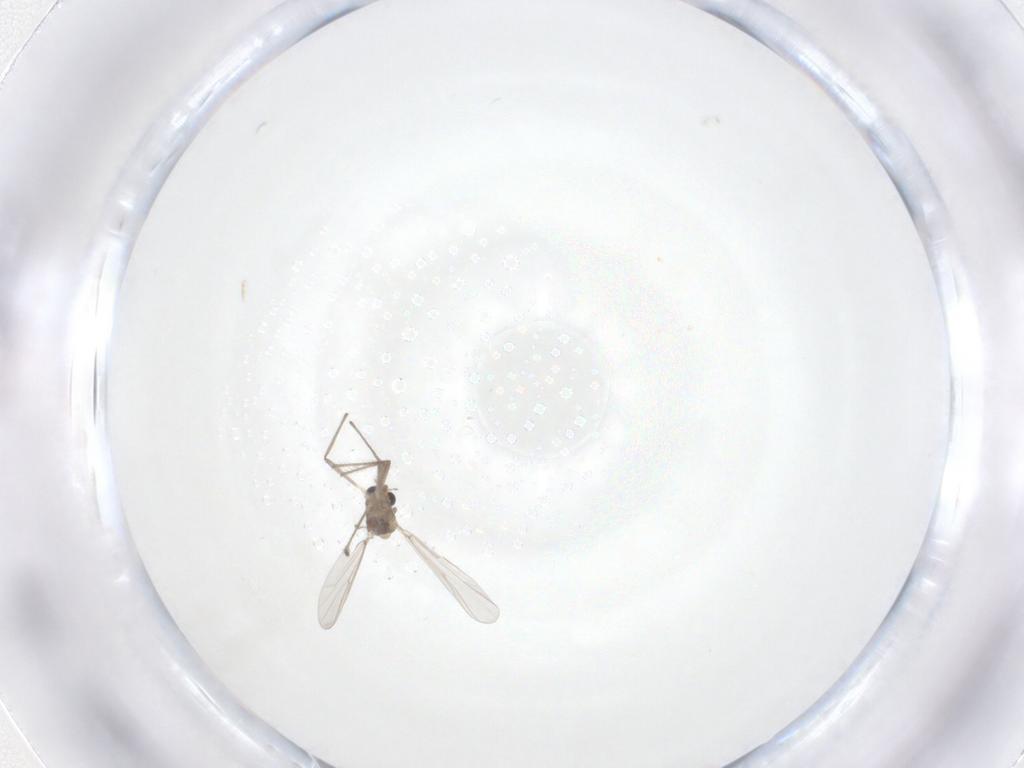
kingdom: Animalia
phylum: Arthropoda
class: Insecta
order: Diptera
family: Chironomidae
